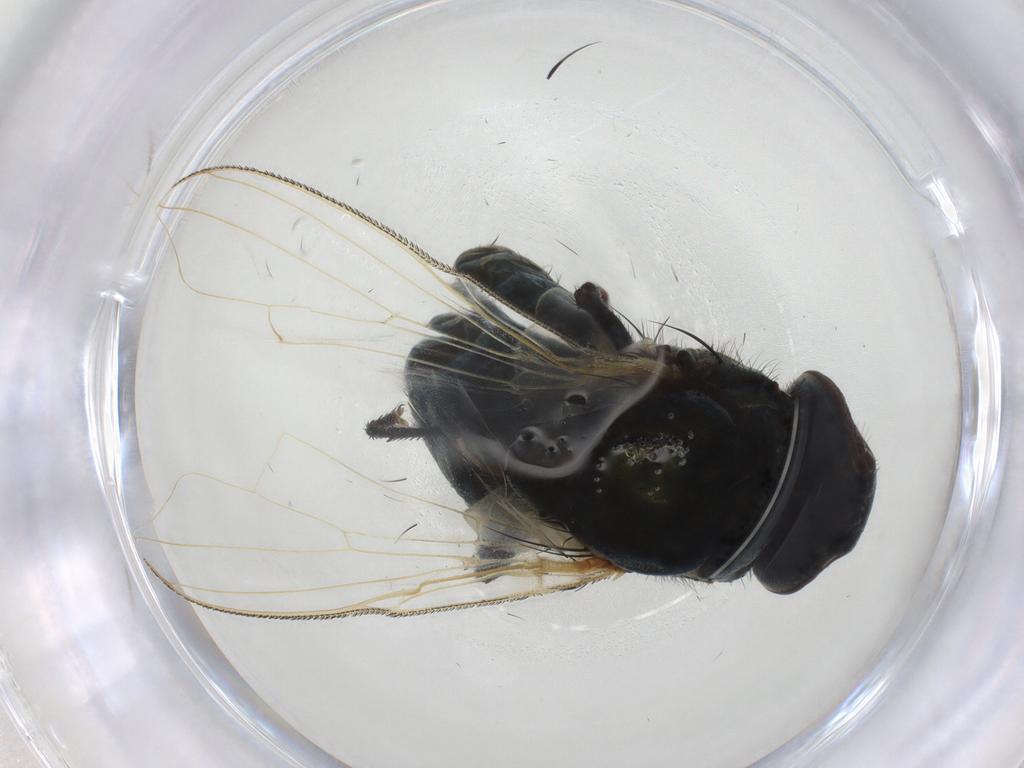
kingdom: Animalia
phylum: Arthropoda
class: Insecta
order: Diptera
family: Muscidae
